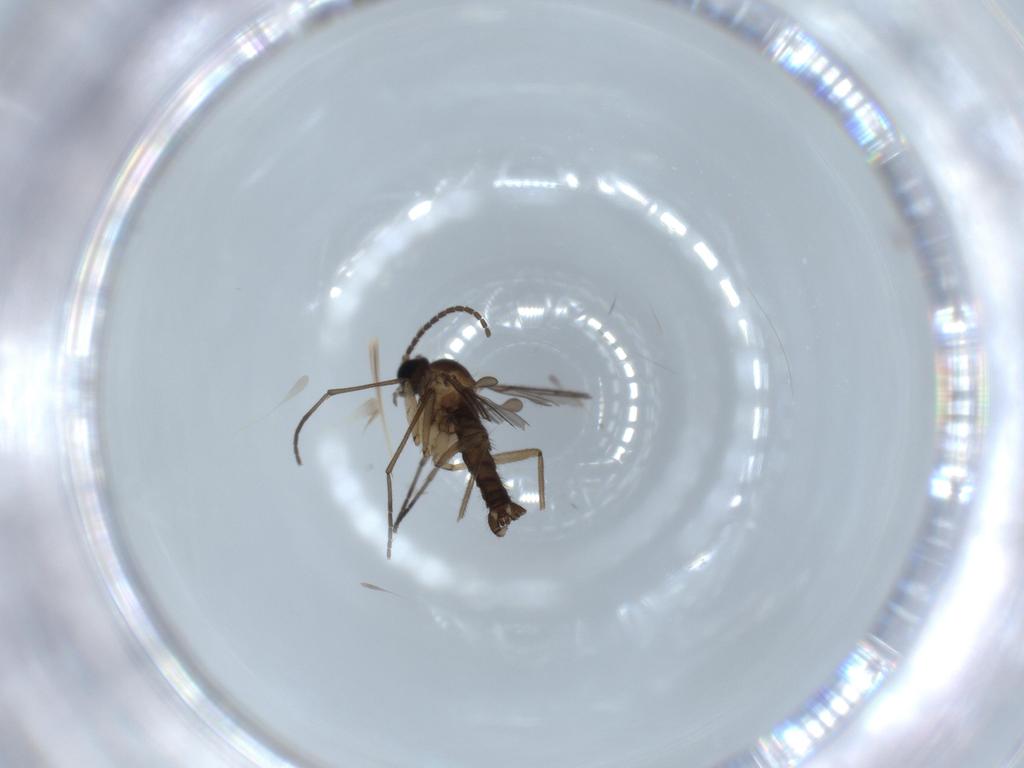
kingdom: Animalia
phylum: Arthropoda
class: Insecta
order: Diptera
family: Sciaridae
